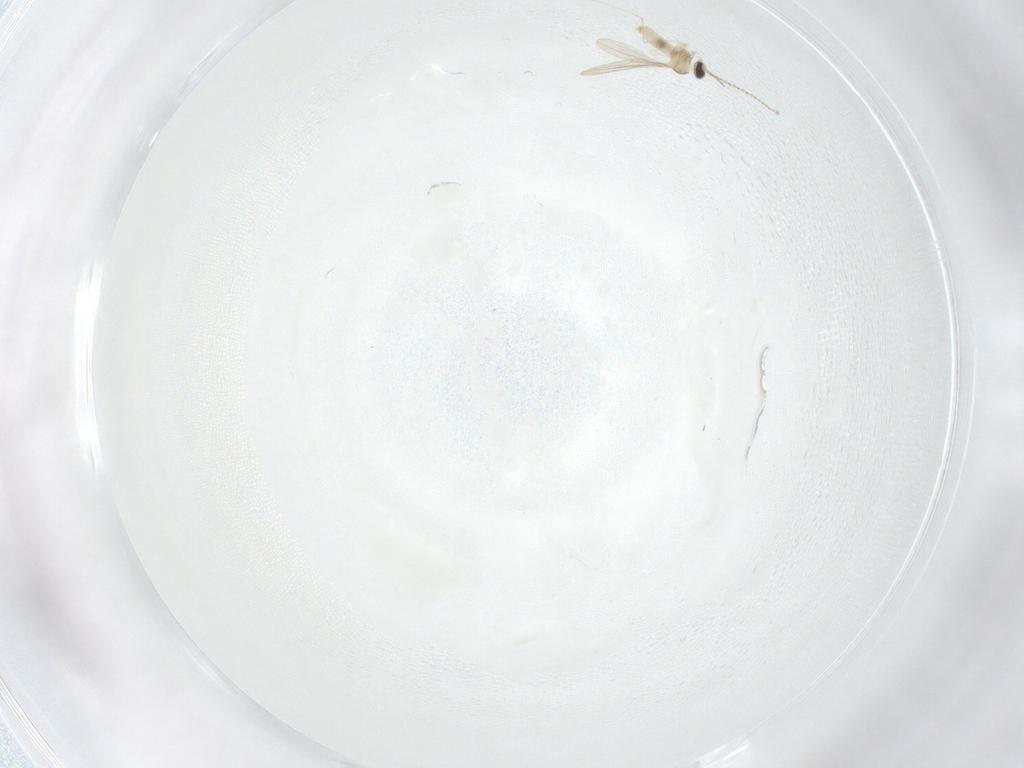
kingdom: Animalia
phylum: Arthropoda
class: Insecta
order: Diptera
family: Cecidomyiidae
